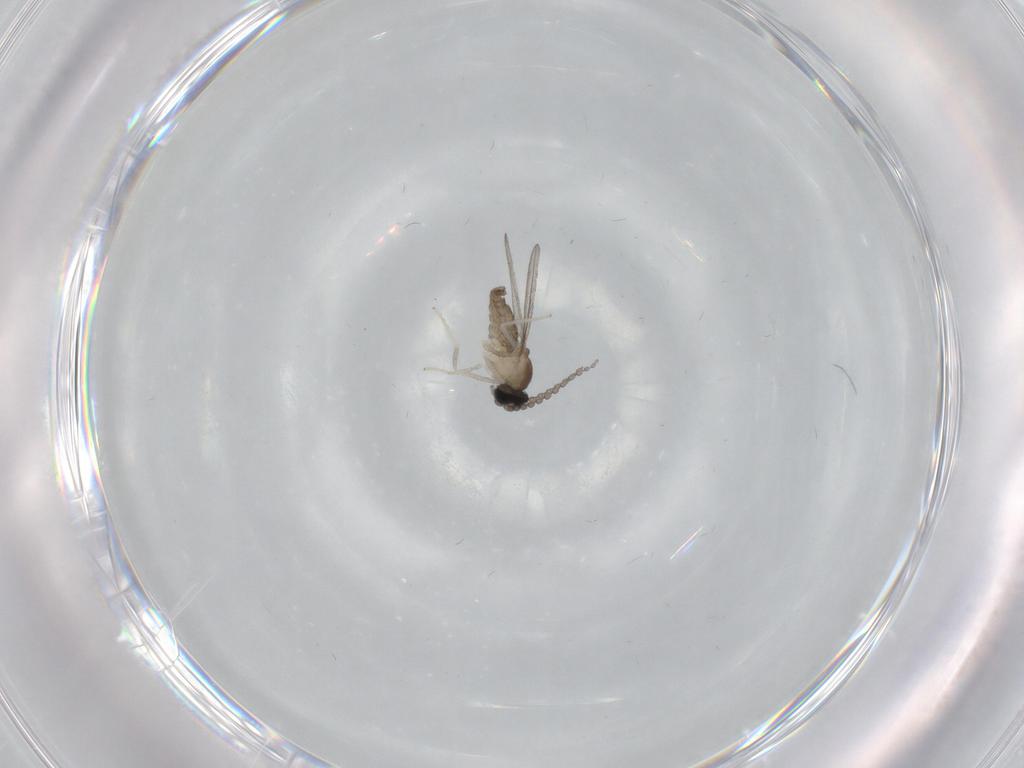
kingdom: Animalia
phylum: Arthropoda
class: Insecta
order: Diptera
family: Cecidomyiidae
